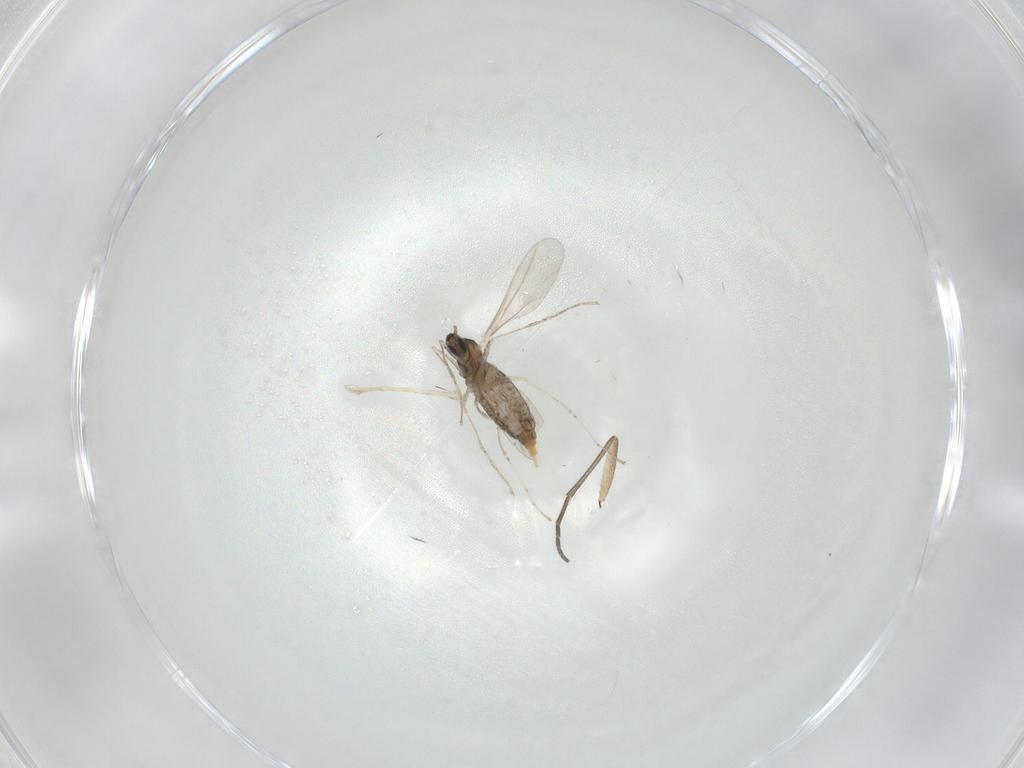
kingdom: Animalia
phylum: Arthropoda
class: Insecta
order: Diptera
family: Cecidomyiidae
